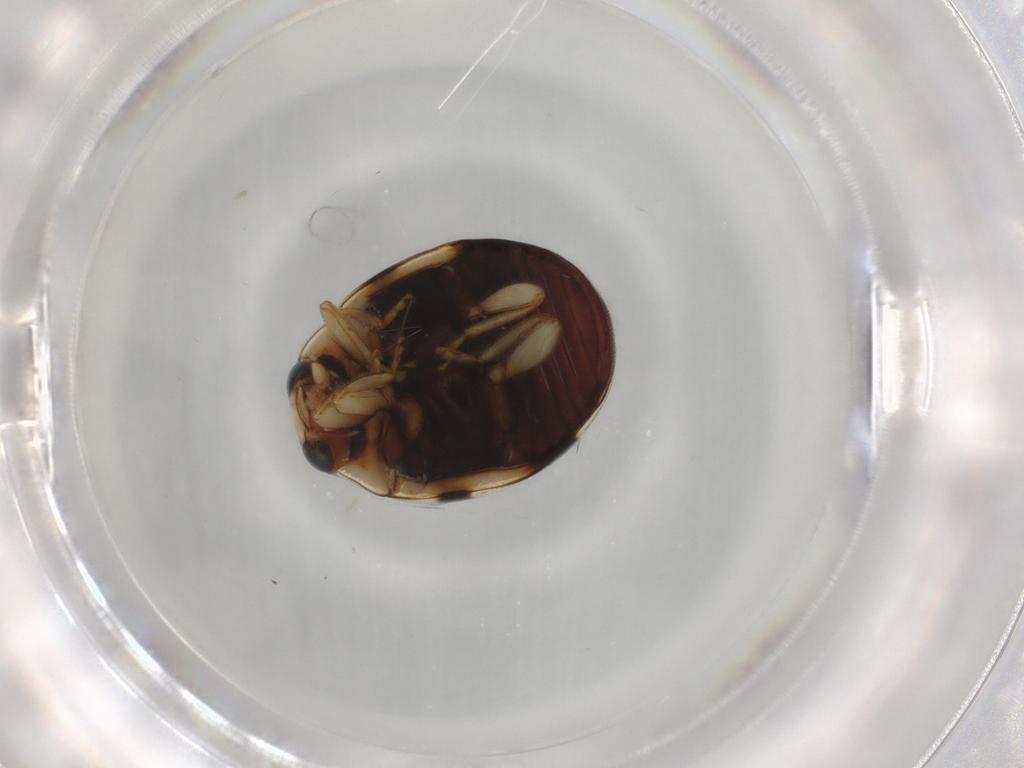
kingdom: Animalia
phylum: Arthropoda
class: Insecta
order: Coleoptera
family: Coccinellidae
